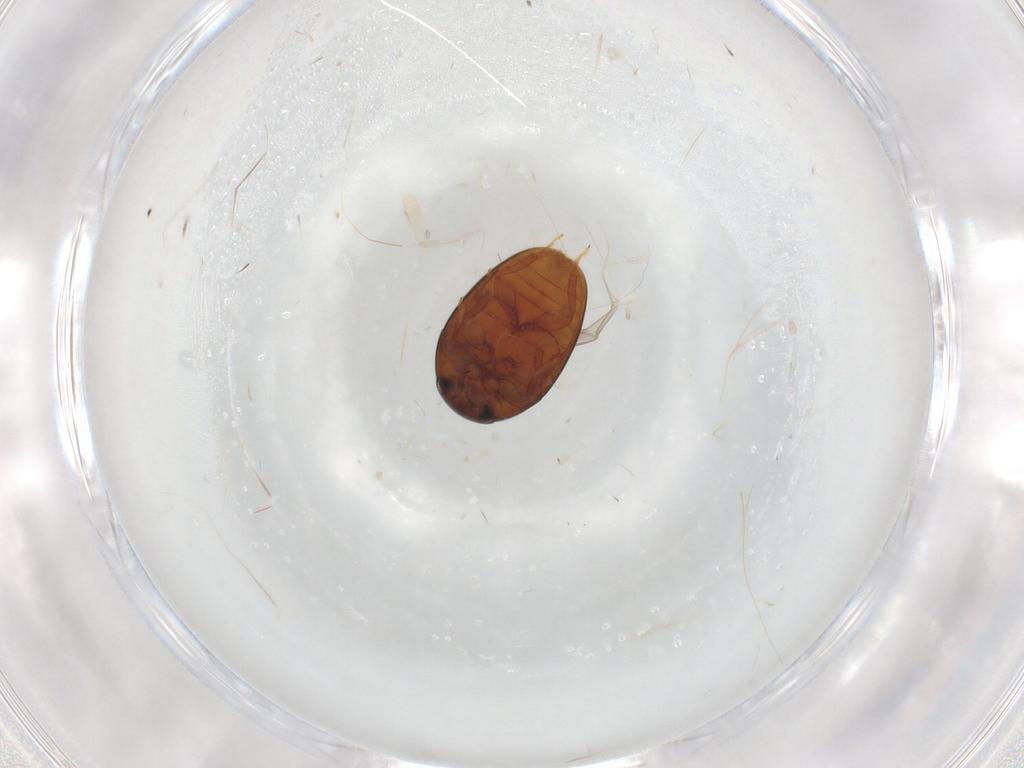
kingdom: Animalia
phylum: Arthropoda
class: Insecta
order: Coleoptera
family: Phalacridae
